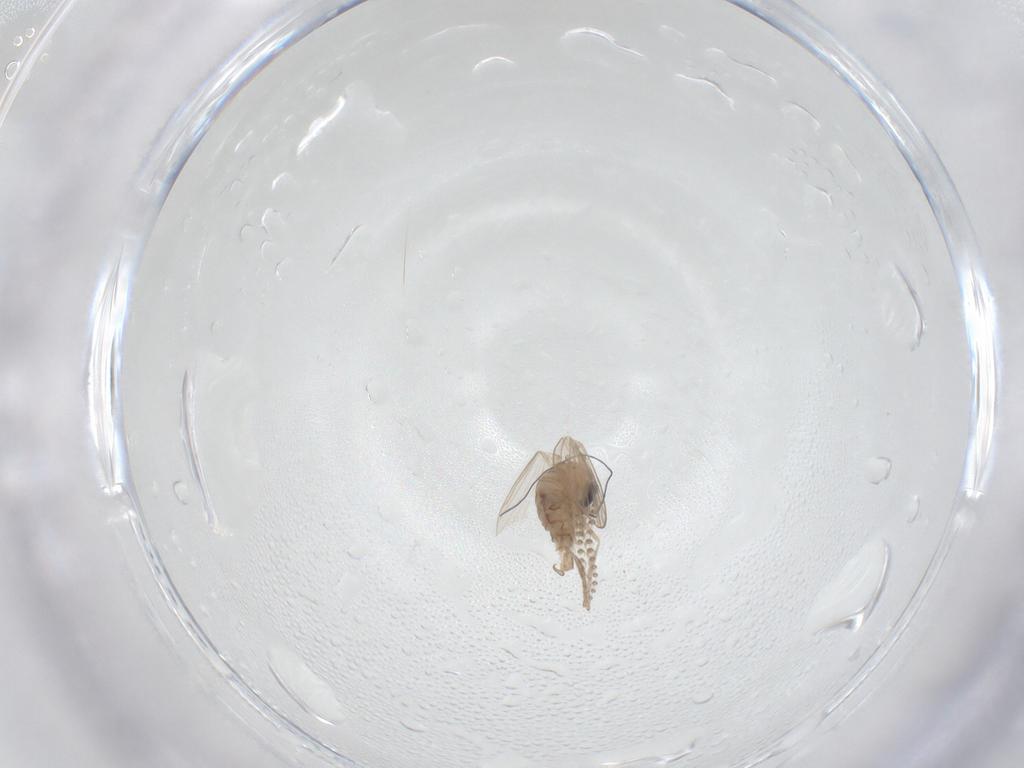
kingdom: Animalia
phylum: Arthropoda
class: Insecta
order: Diptera
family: Psychodidae
